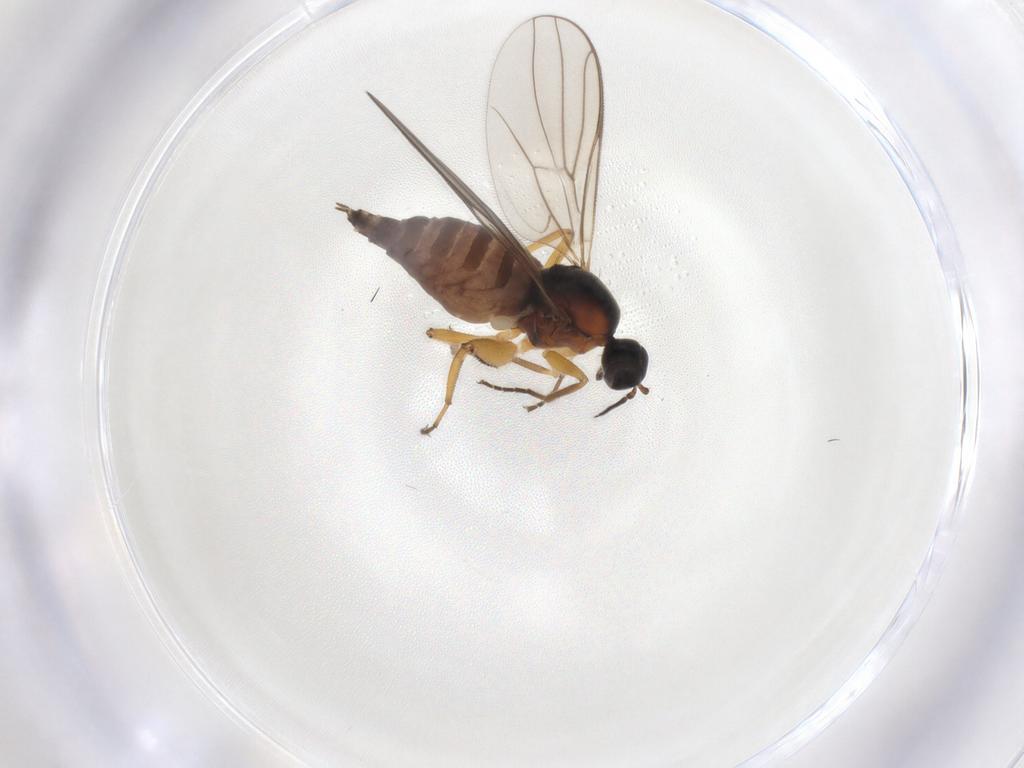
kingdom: Animalia
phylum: Arthropoda
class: Insecta
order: Diptera
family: Hybotidae
